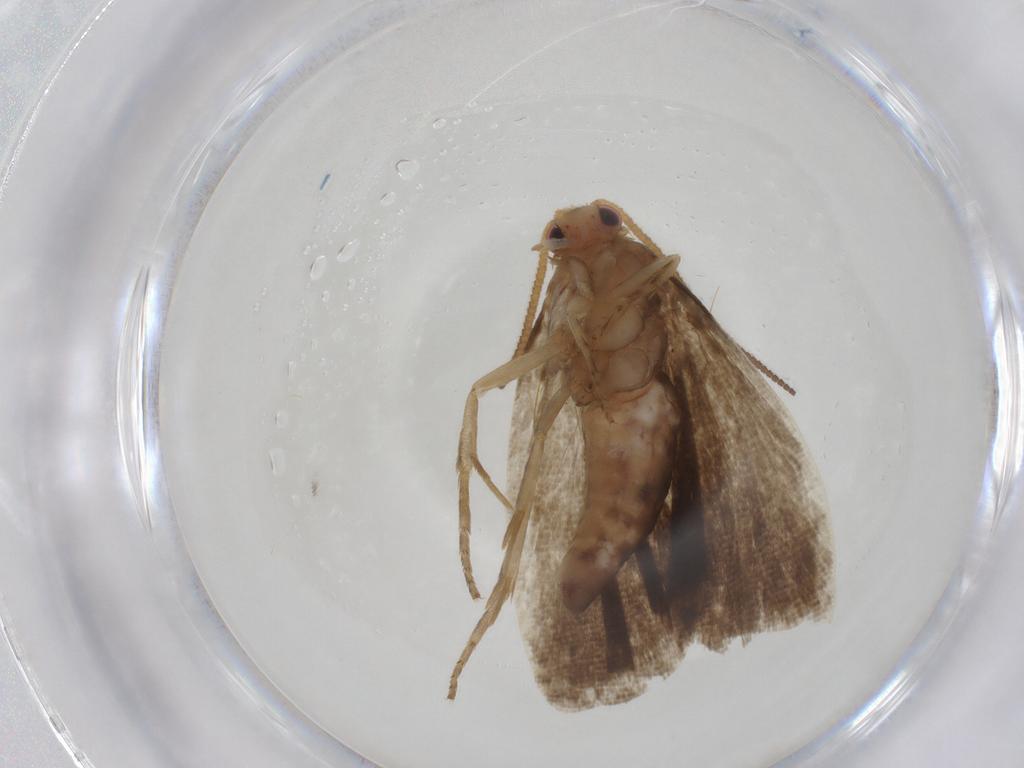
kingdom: Animalia
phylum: Arthropoda
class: Insecta
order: Lepidoptera
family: Tortricidae
